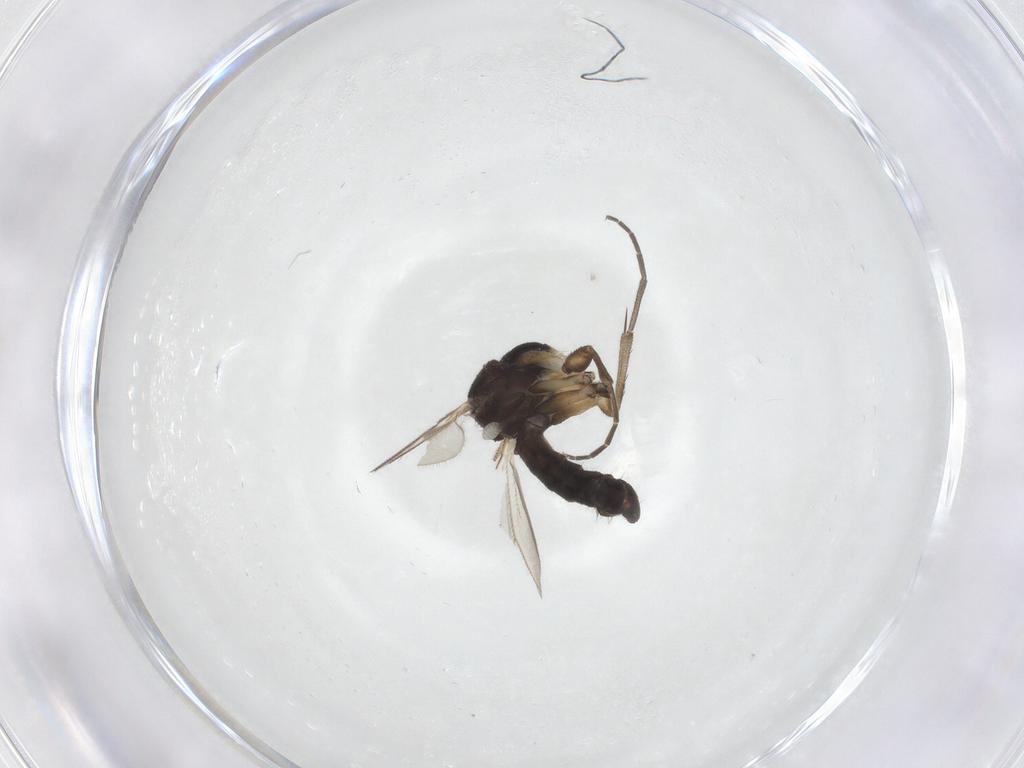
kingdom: Animalia
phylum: Arthropoda
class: Insecta
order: Diptera
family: Mycetophilidae
